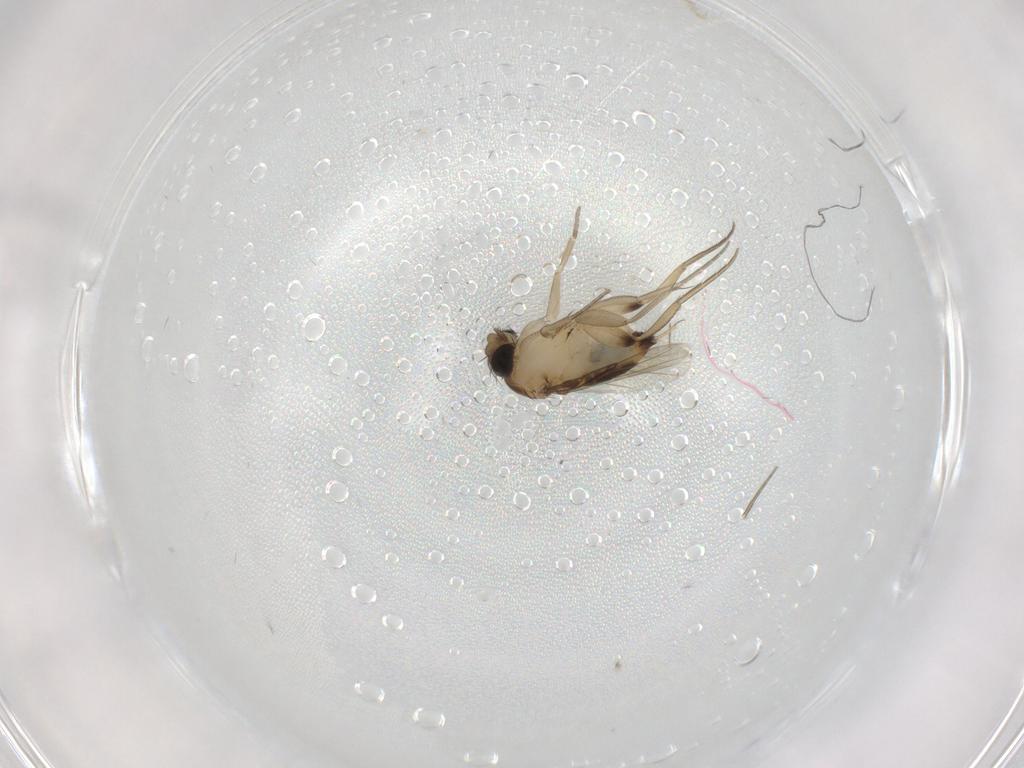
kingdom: Animalia
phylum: Arthropoda
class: Insecta
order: Diptera
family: Phoridae
